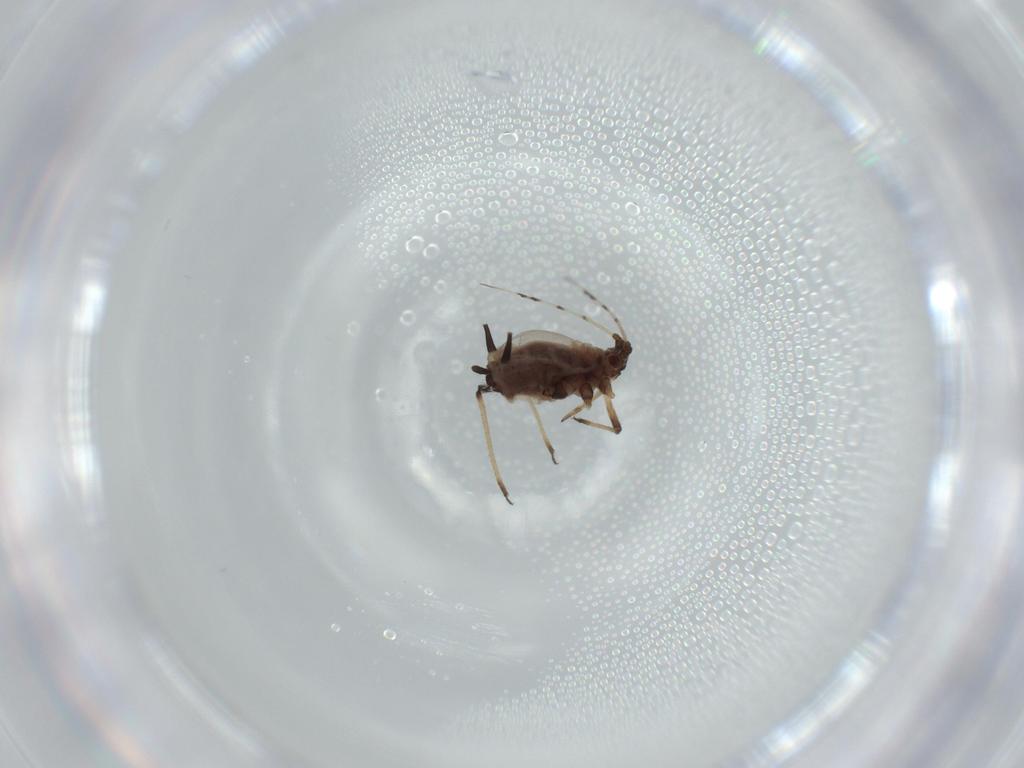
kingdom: Animalia
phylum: Arthropoda
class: Insecta
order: Hemiptera
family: Aphididae
